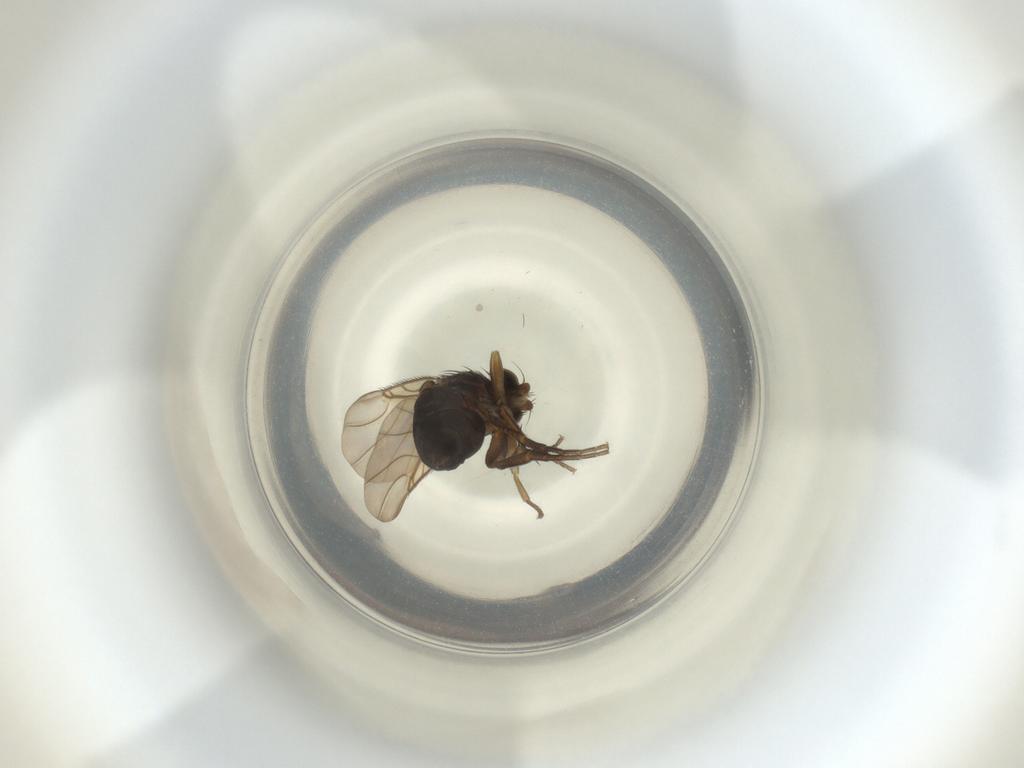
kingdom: Animalia
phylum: Arthropoda
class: Insecta
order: Diptera
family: Phoridae
